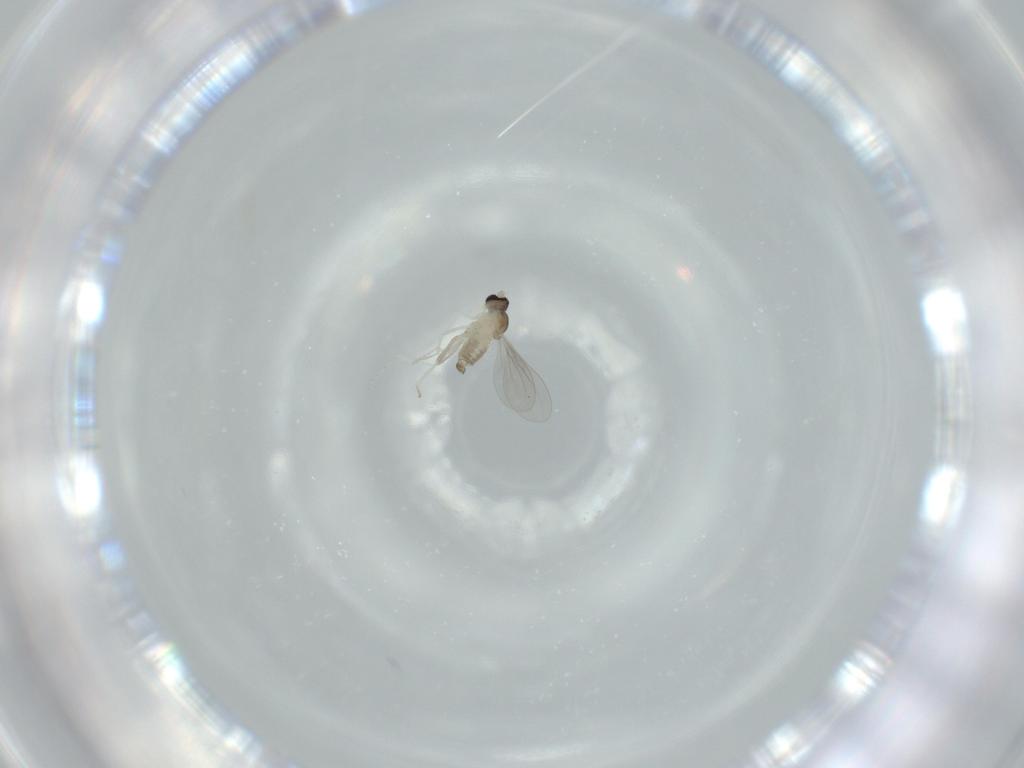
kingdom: Animalia
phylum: Arthropoda
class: Insecta
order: Diptera
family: Cecidomyiidae
